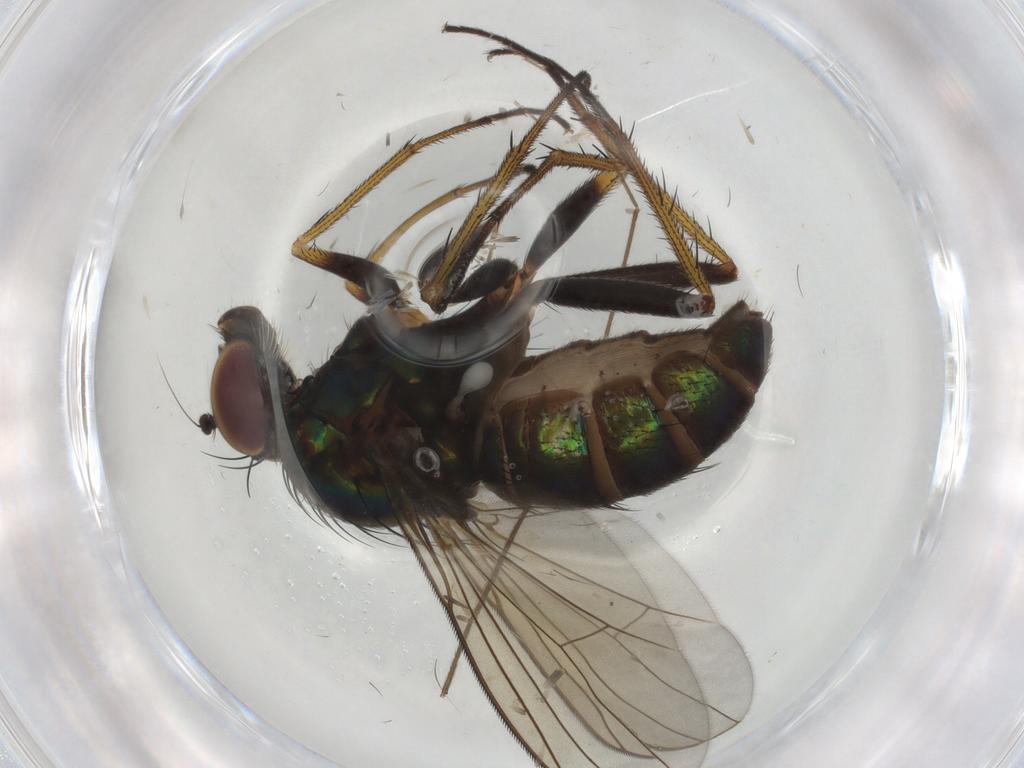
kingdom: Animalia
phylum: Arthropoda
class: Insecta
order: Diptera
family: Dolichopodidae
